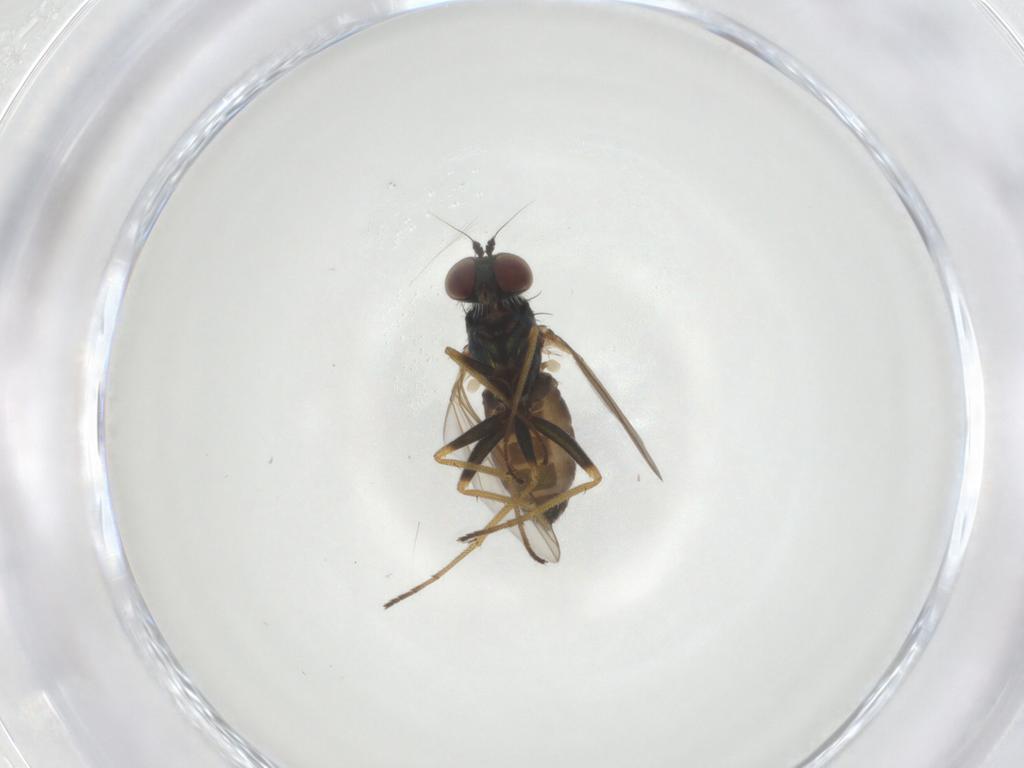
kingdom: Animalia
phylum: Arthropoda
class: Insecta
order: Diptera
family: Dolichopodidae
